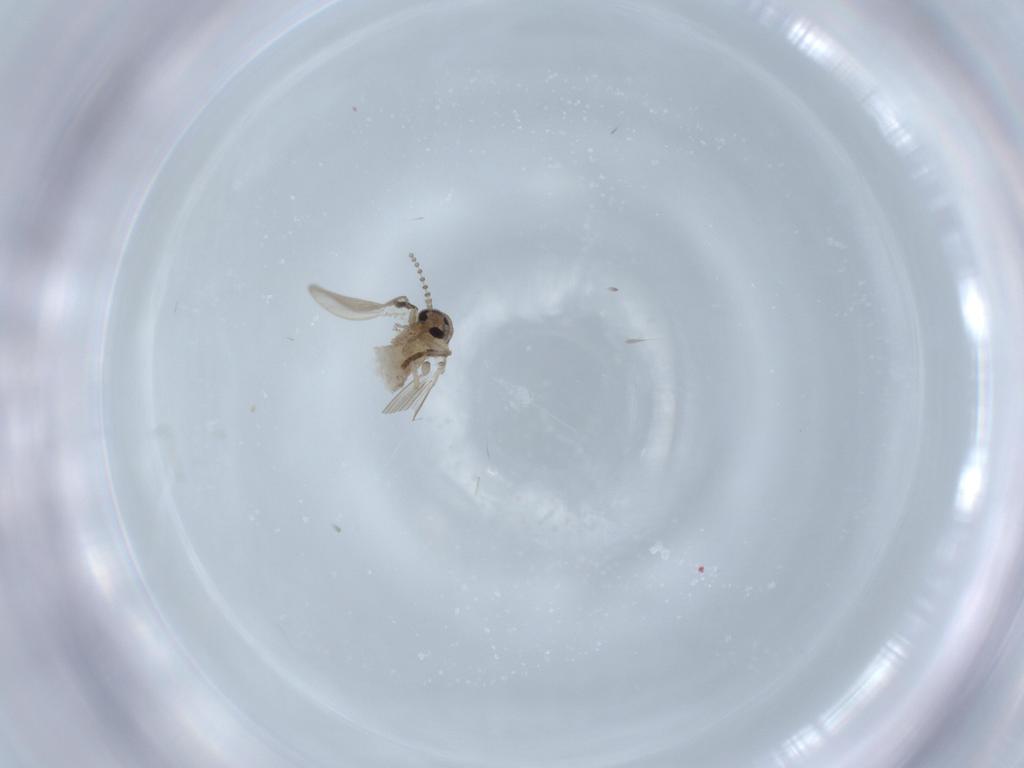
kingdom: Animalia
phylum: Arthropoda
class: Insecta
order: Diptera
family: Psychodidae
